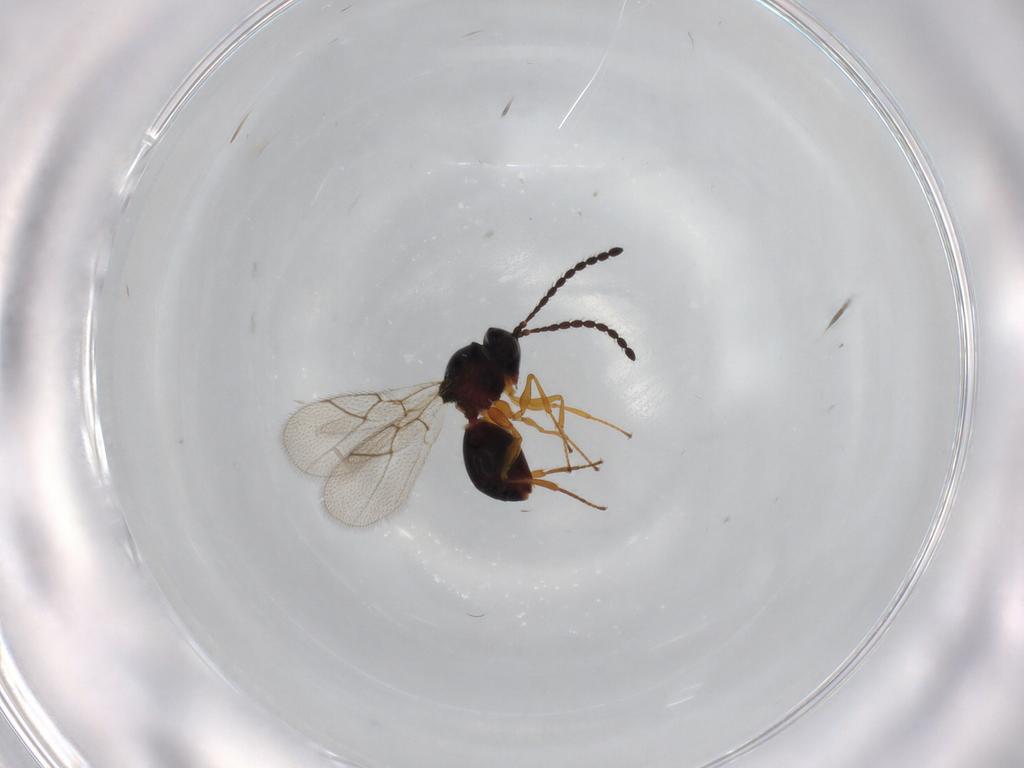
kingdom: Animalia
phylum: Arthropoda
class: Insecta
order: Hymenoptera
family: Figitidae
